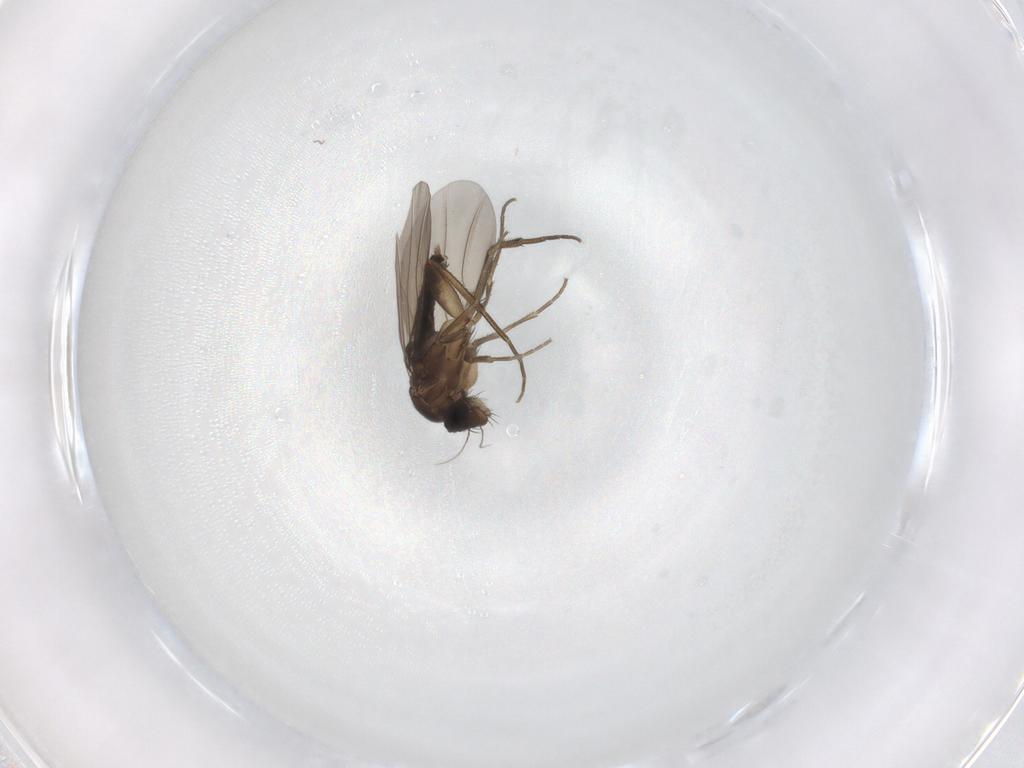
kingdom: Animalia
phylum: Arthropoda
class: Insecta
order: Diptera
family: Phoridae
